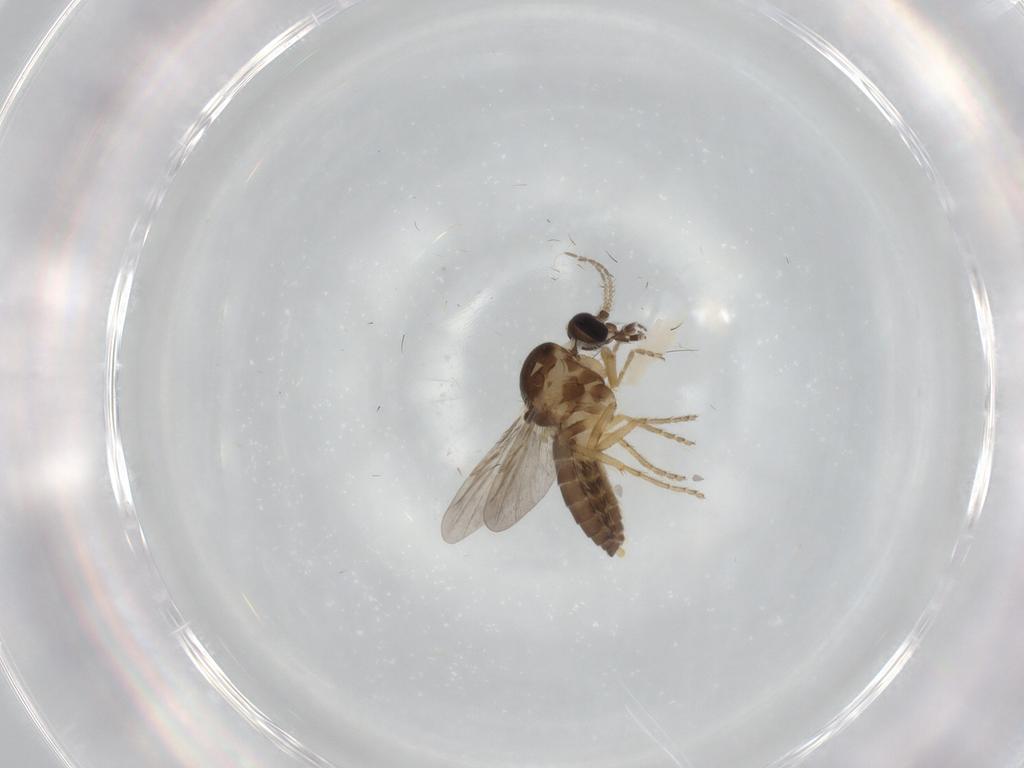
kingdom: Animalia
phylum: Arthropoda
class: Insecta
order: Diptera
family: Ceratopogonidae
